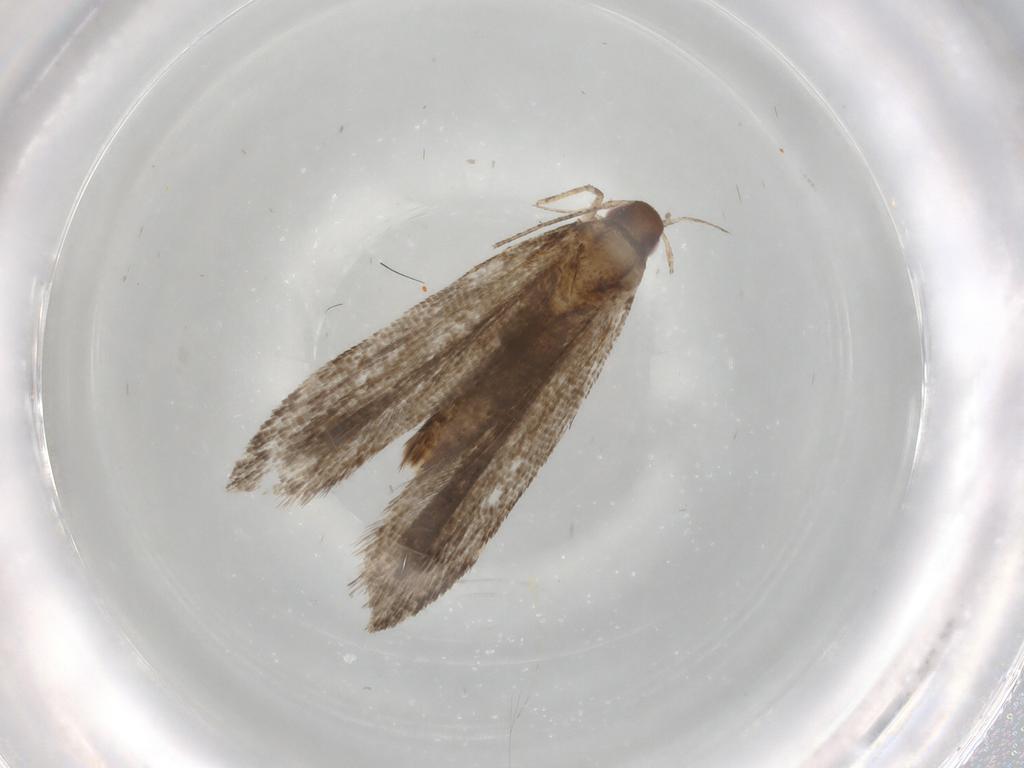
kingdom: Animalia
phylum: Arthropoda
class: Insecta
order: Lepidoptera
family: Gelechiidae
